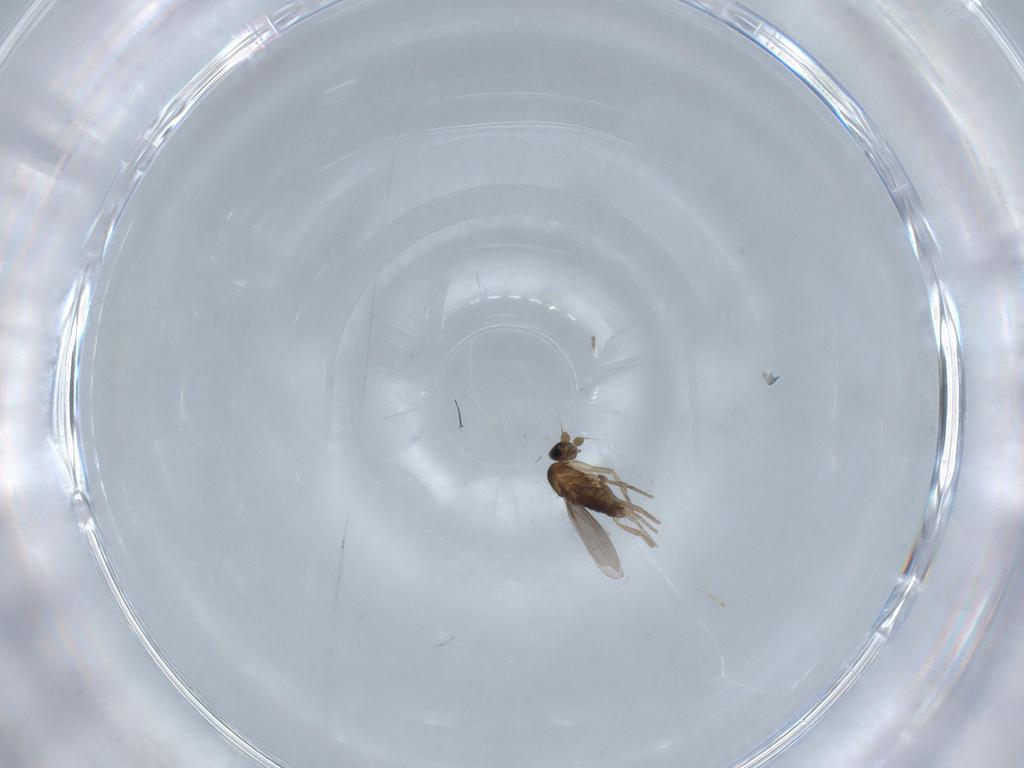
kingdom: Animalia
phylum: Arthropoda
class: Insecta
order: Diptera
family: Phoridae
